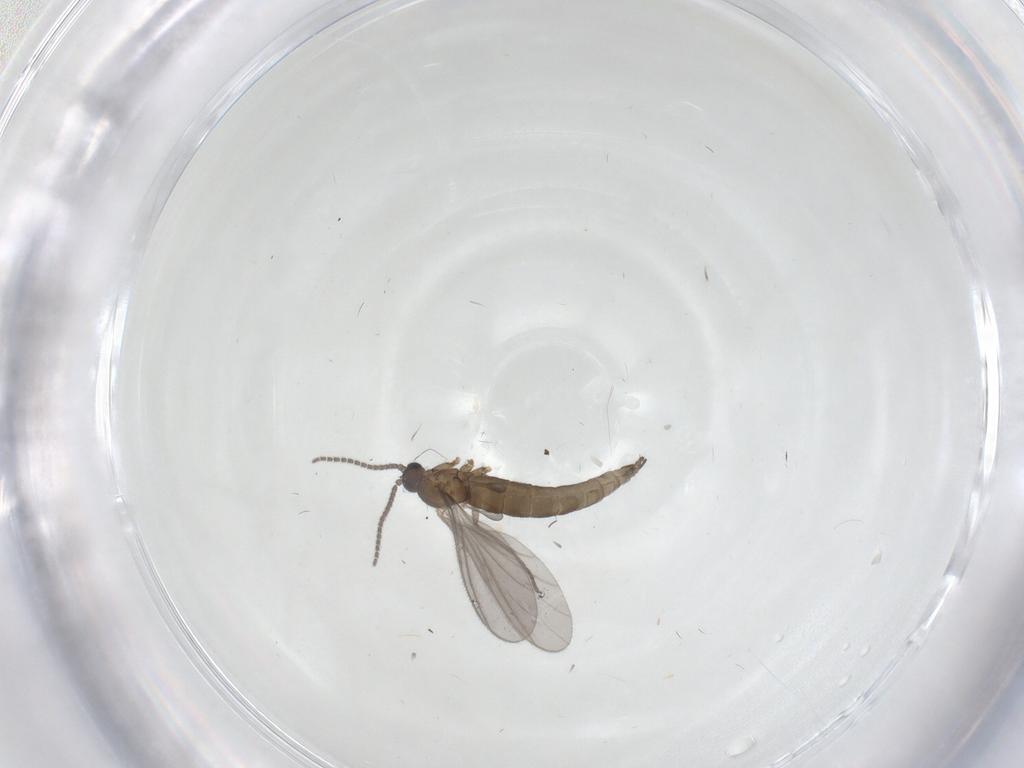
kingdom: Animalia
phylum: Arthropoda
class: Insecta
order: Diptera
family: Sciaridae
